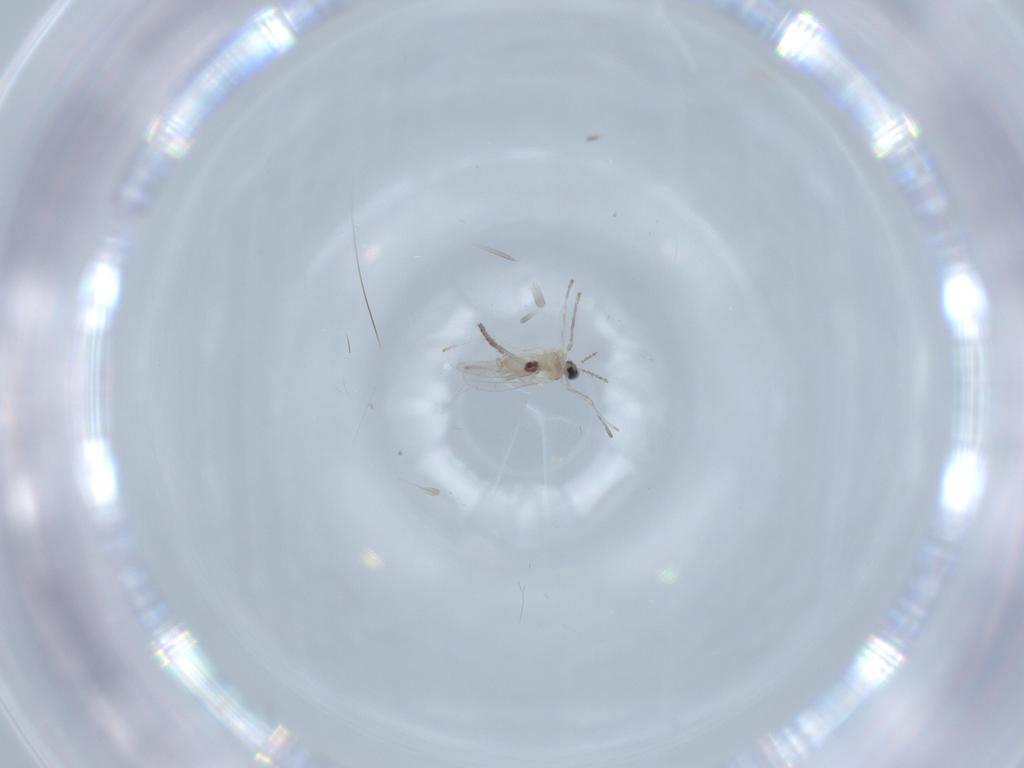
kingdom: Animalia
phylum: Arthropoda
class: Insecta
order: Diptera
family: Cecidomyiidae
